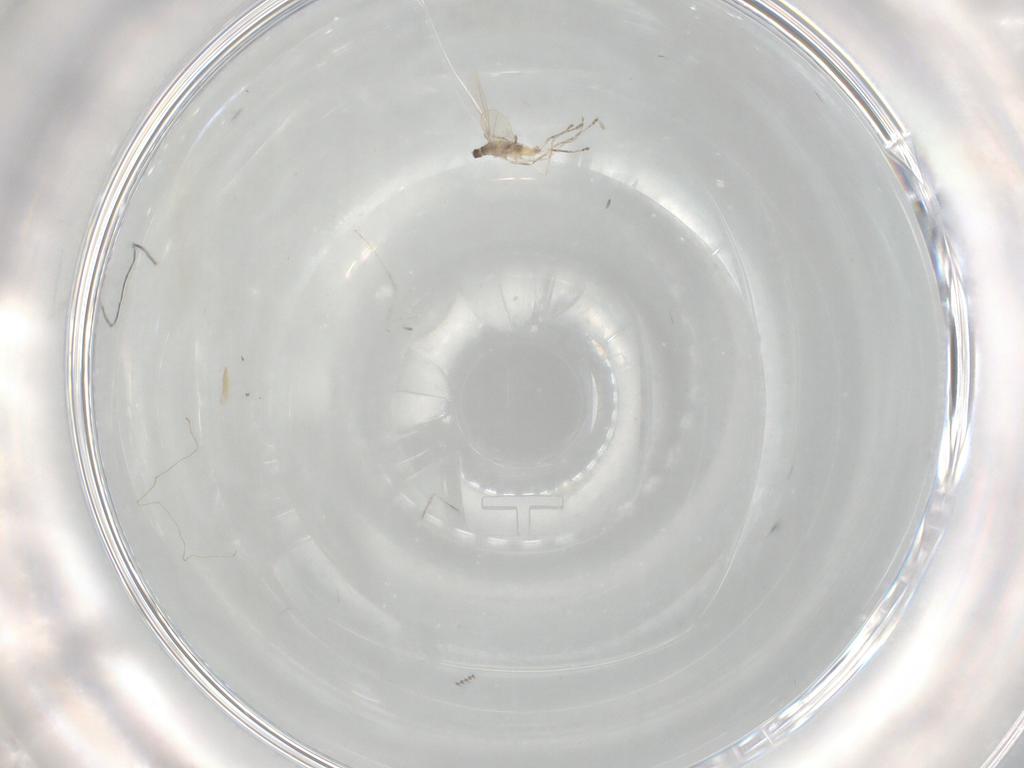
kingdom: Animalia
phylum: Arthropoda
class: Insecta
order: Diptera
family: Cecidomyiidae
